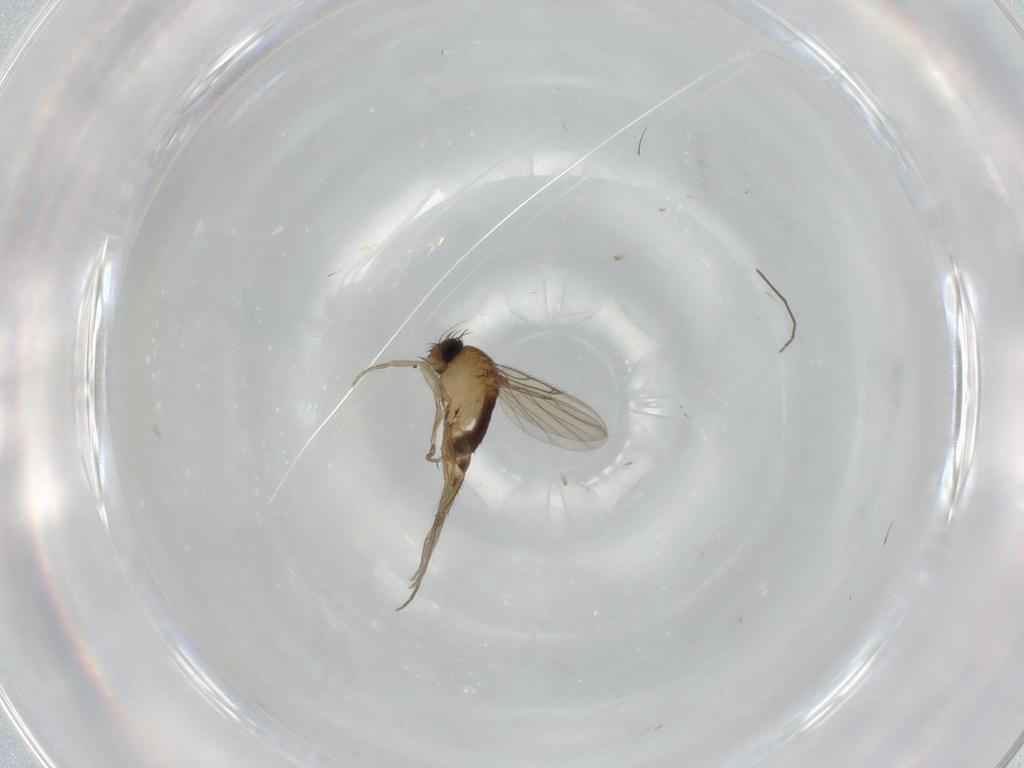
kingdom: Animalia
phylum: Arthropoda
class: Insecta
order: Diptera
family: Phoridae
